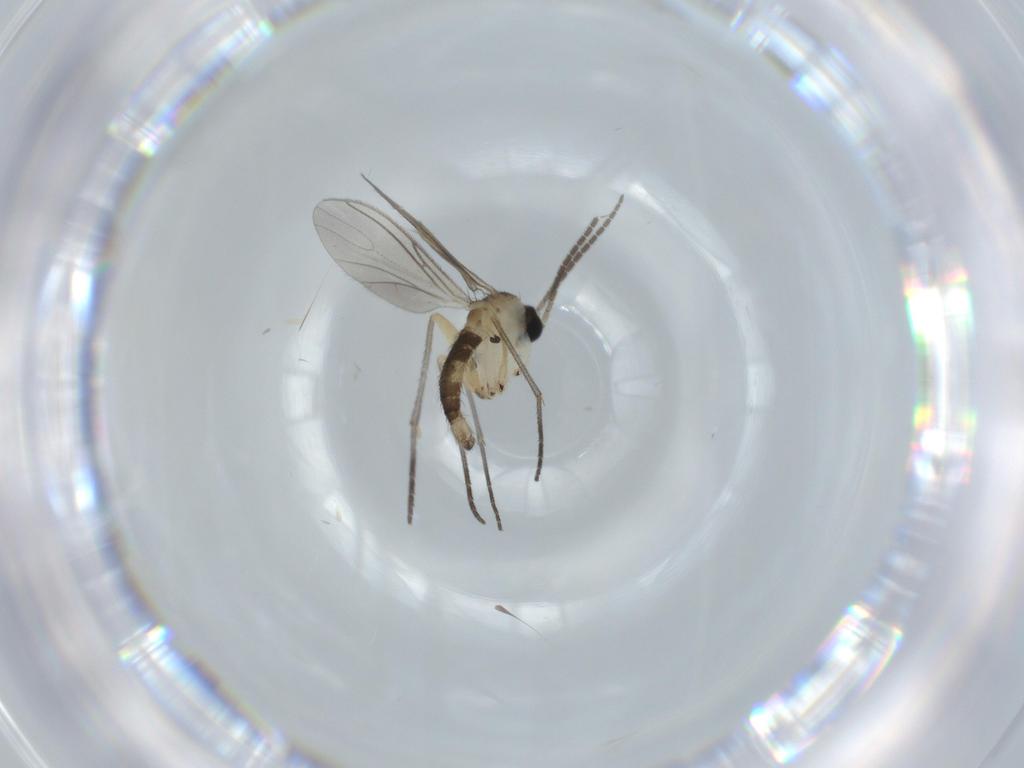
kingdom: Animalia
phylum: Arthropoda
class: Insecta
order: Diptera
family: Sciaridae
